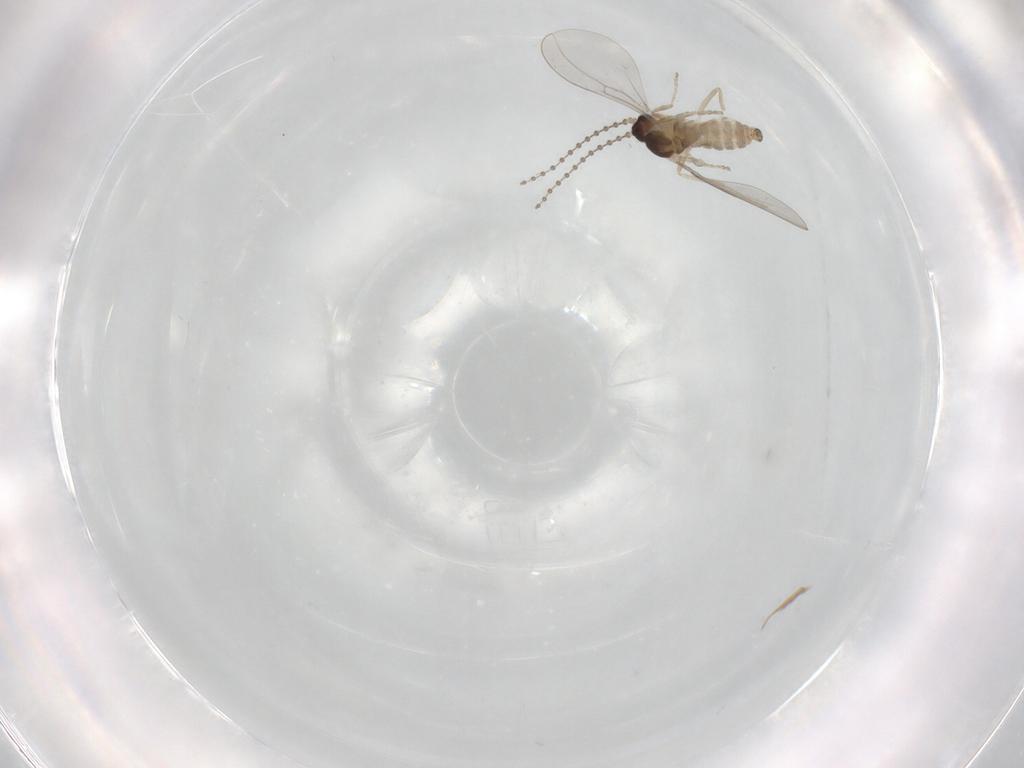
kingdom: Animalia
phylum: Arthropoda
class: Insecta
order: Diptera
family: Cecidomyiidae
